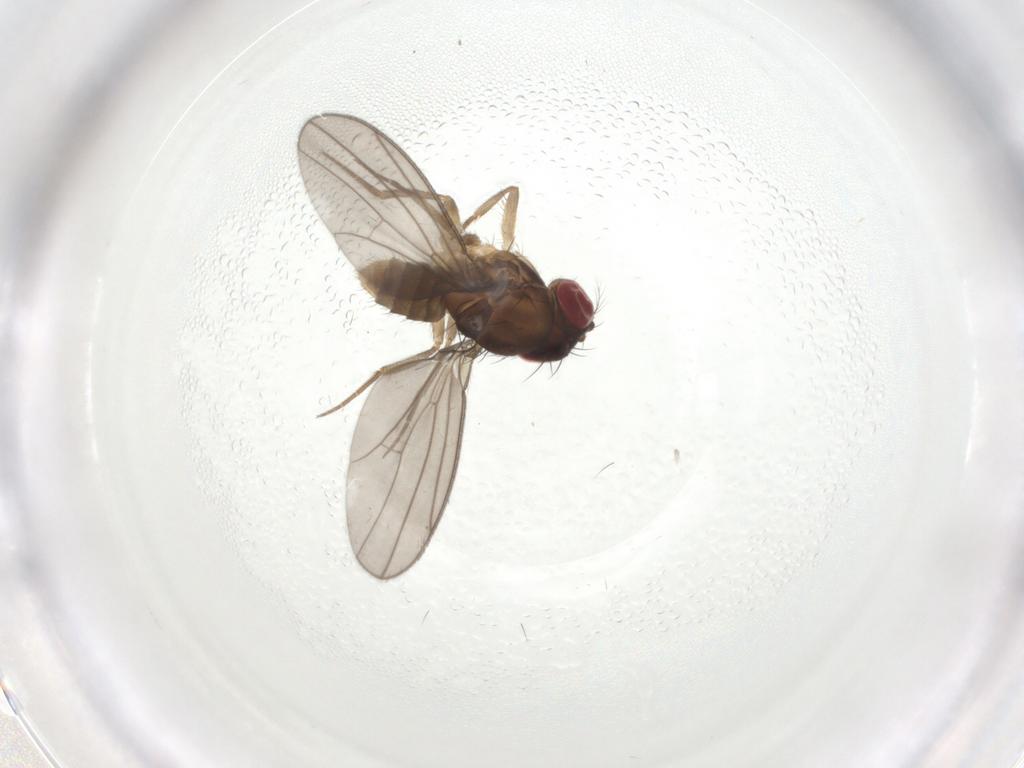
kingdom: Animalia
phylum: Arthropoda
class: Insecta
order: Diptera
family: Drosophilidae
